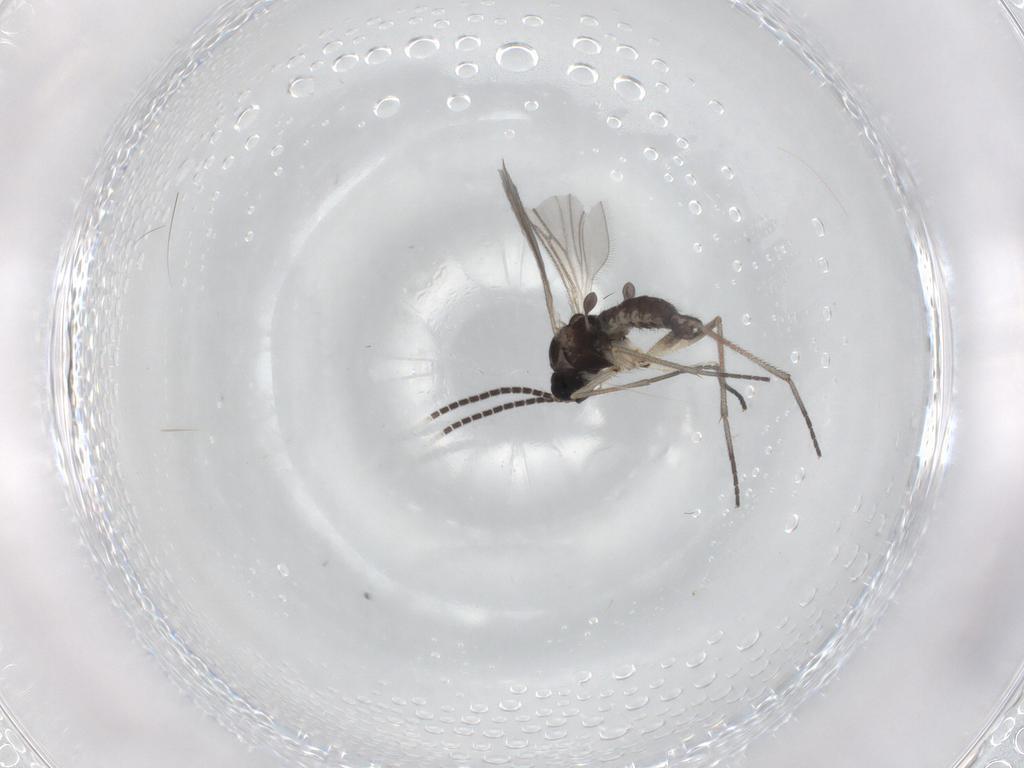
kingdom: Animalia
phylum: Arthropoda
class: Insecta
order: Diptera
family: Sciaridae
